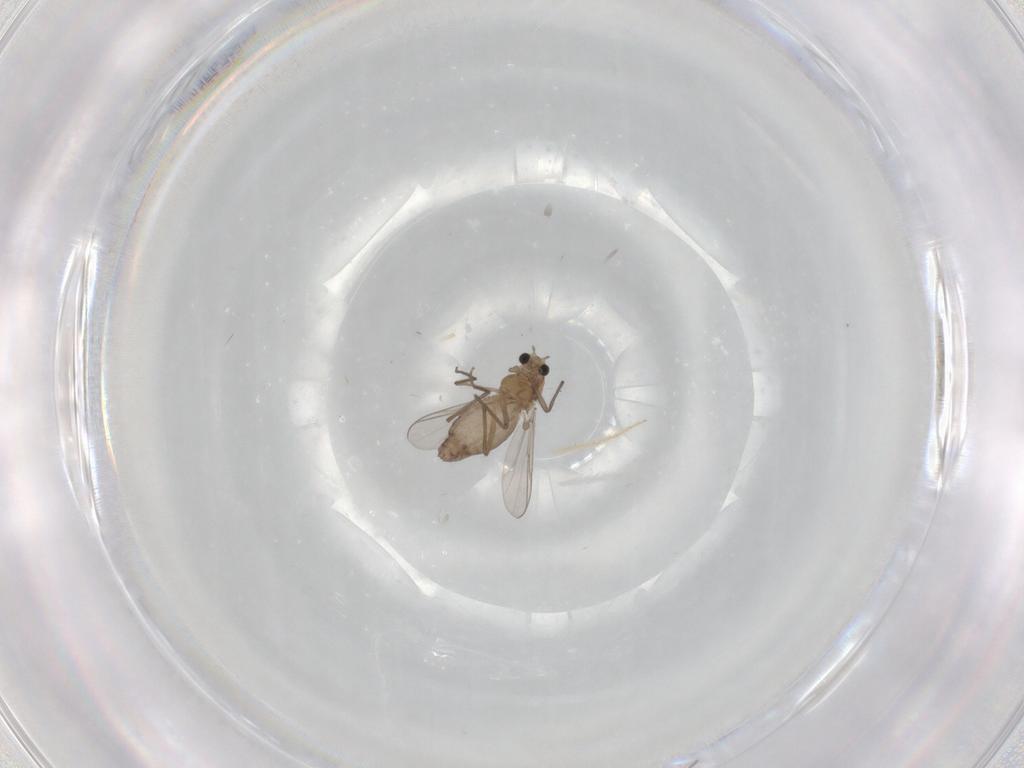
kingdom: Animalia
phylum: Arthropoda
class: Insecta
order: Diptera
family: Chironomidae
